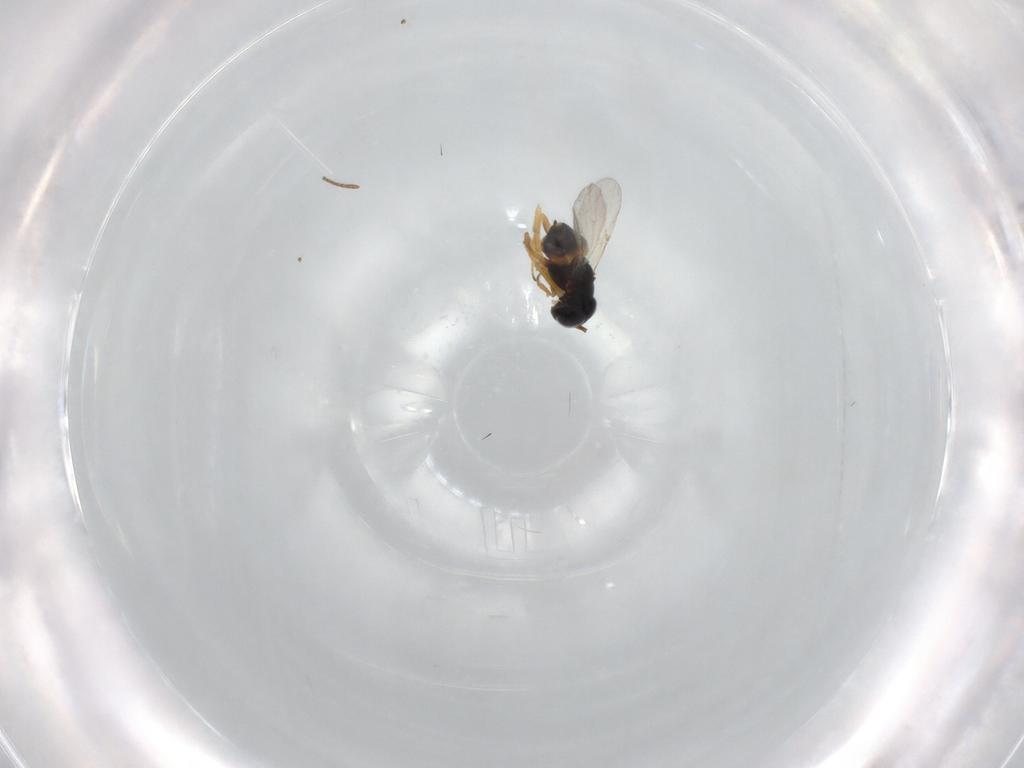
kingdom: Animalia
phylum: Arthropoda
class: Insecta
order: Hymenoptera
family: Encyrtidae
